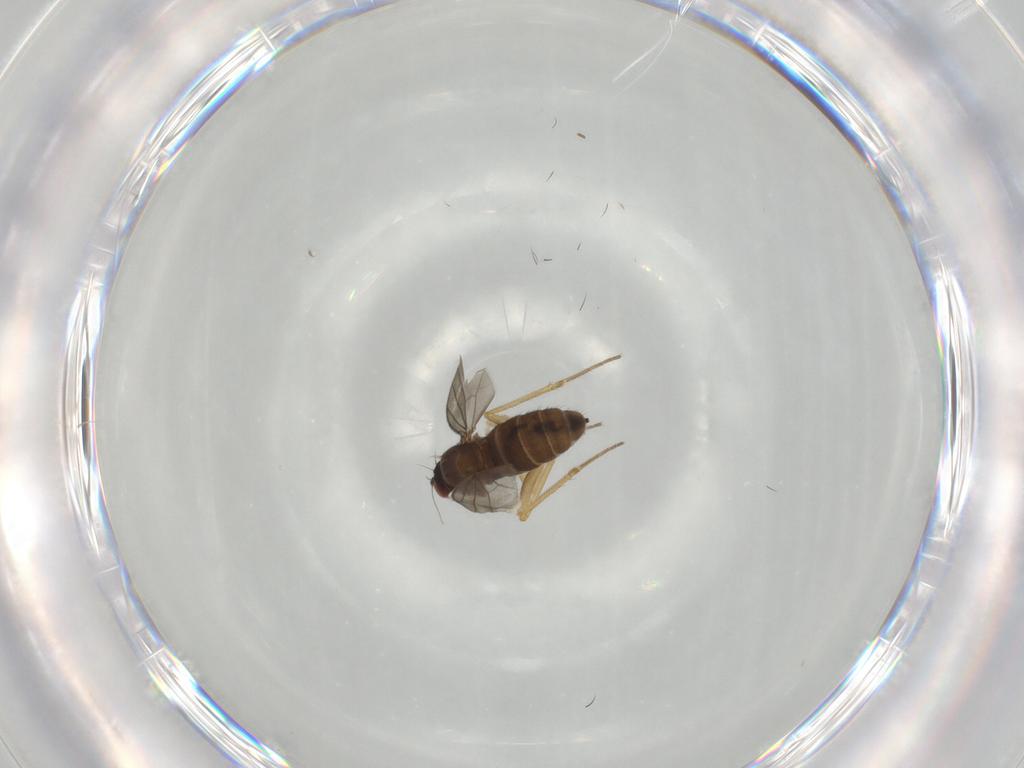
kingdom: Animalia
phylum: Arthropoda
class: Insecta
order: Diptera
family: Dolichopodidae
